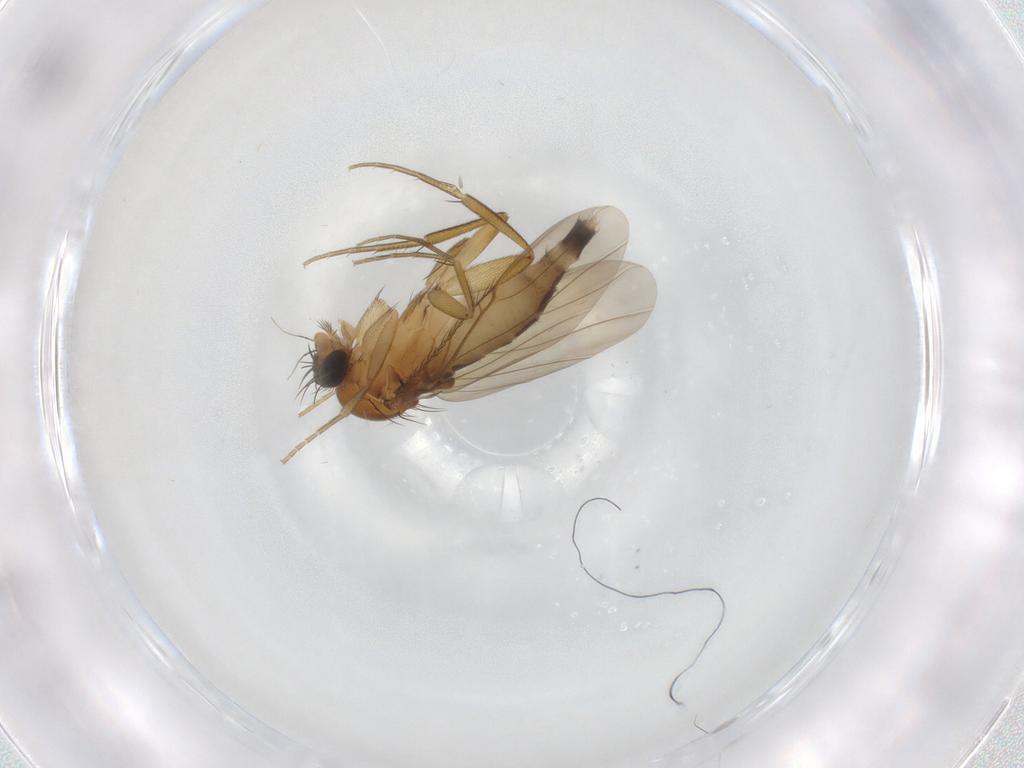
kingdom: Animalia
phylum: Arthropoda
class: Insecta
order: Diptera
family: Phoridae
